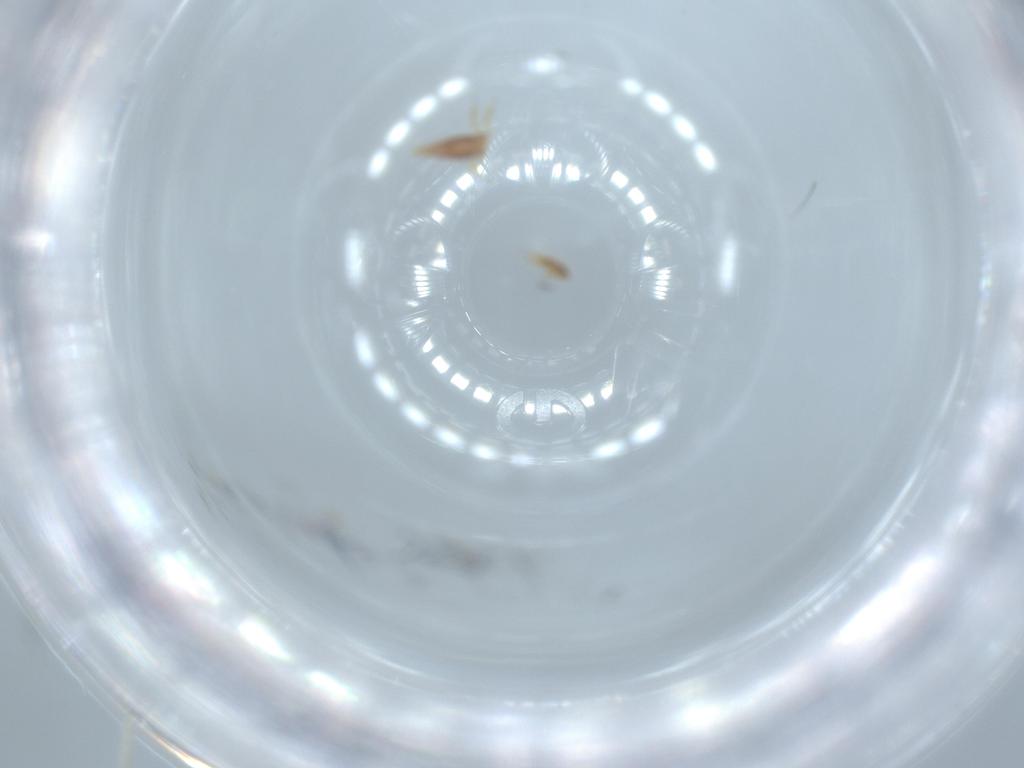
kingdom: Animalia
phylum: Arthropoda
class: Insecta
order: Neuroptera
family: Mantispidae
